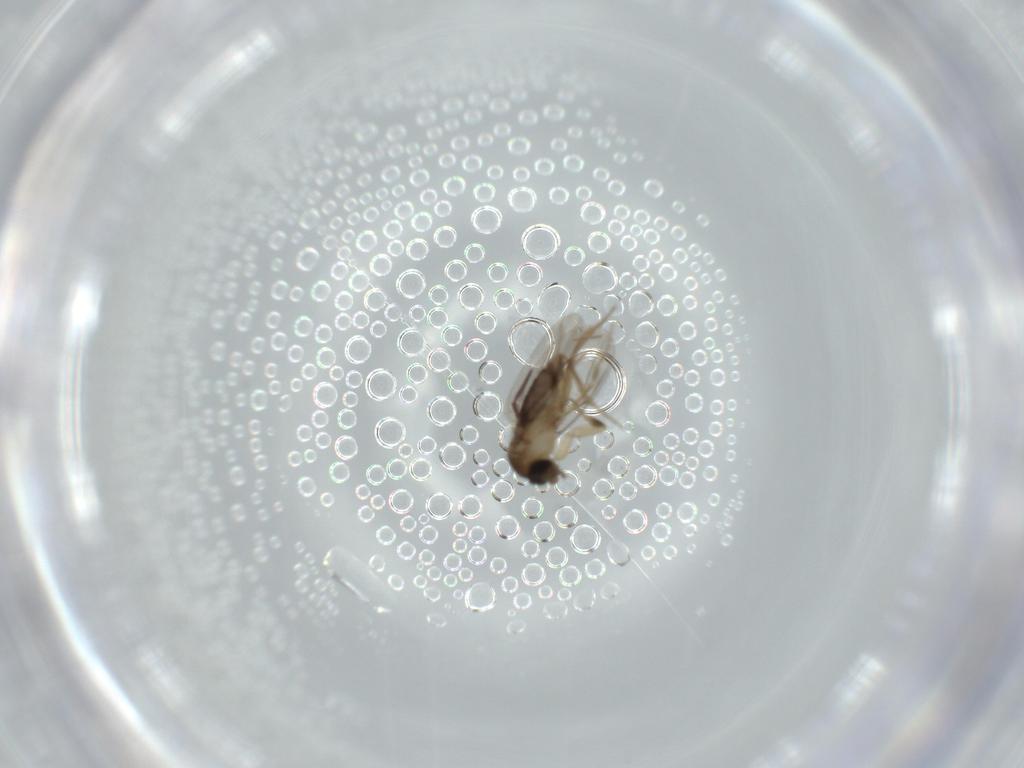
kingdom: Animalia
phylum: Arthropoda
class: Insecta
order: Diptera
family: Phoridae
